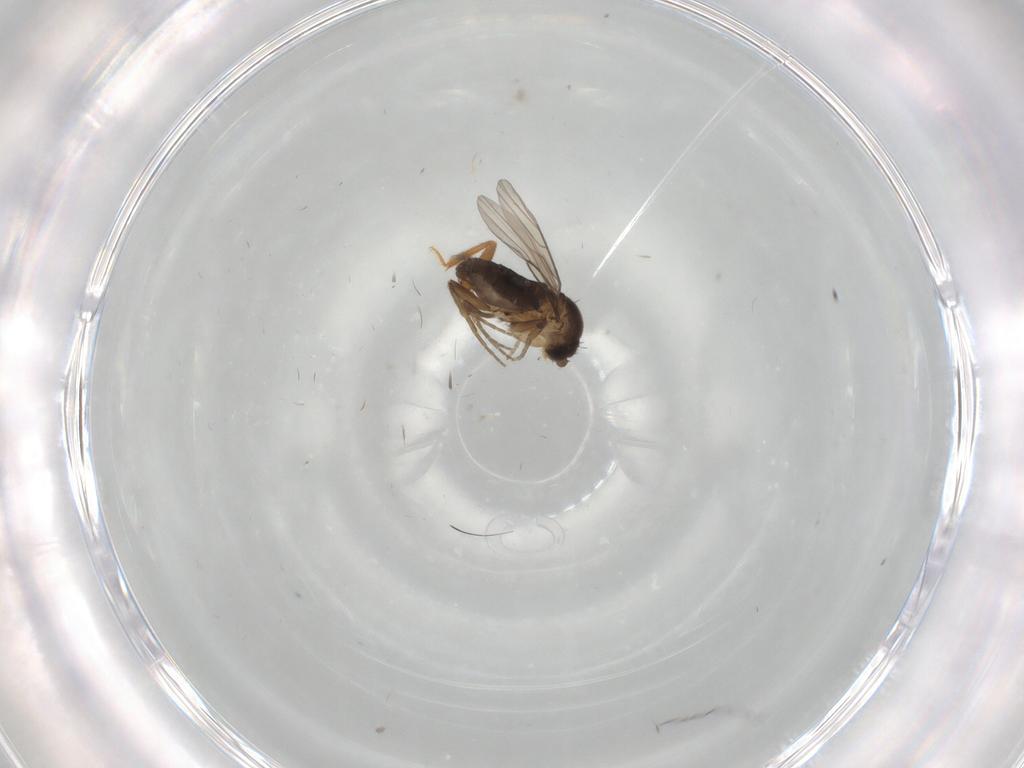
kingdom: Animalia
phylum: Arthropoda
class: Insecta
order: Diptera
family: Phoridae
